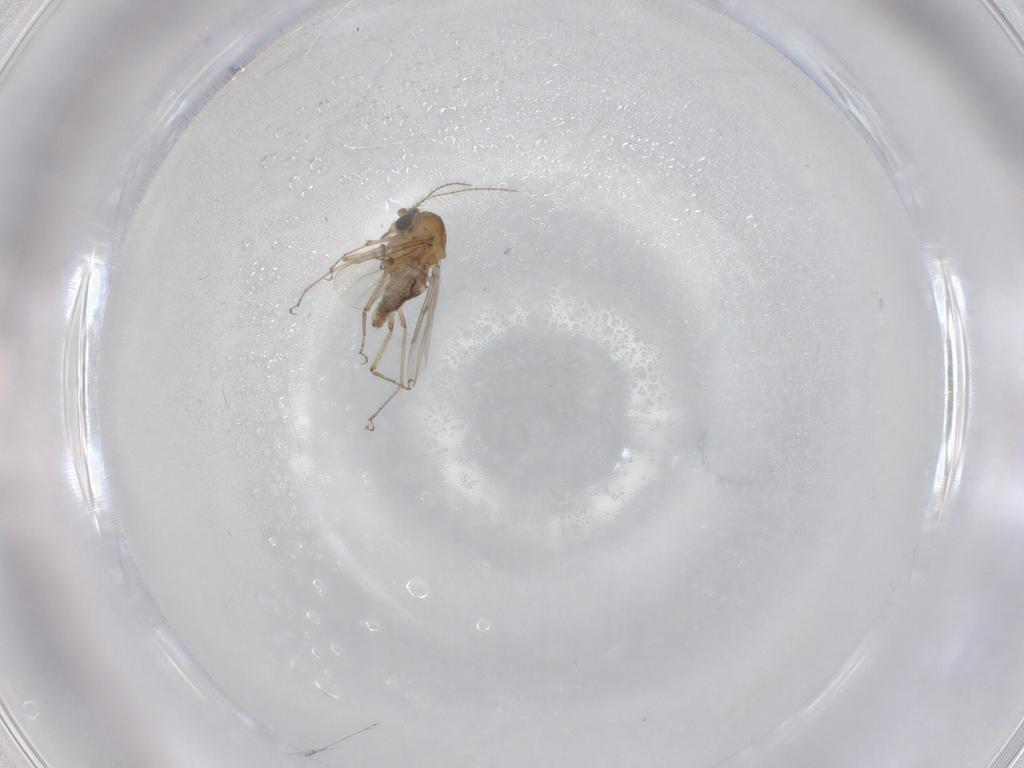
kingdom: Animalia
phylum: Arthropoda
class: Insecta
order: Diptera
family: Ceratopogonidae
